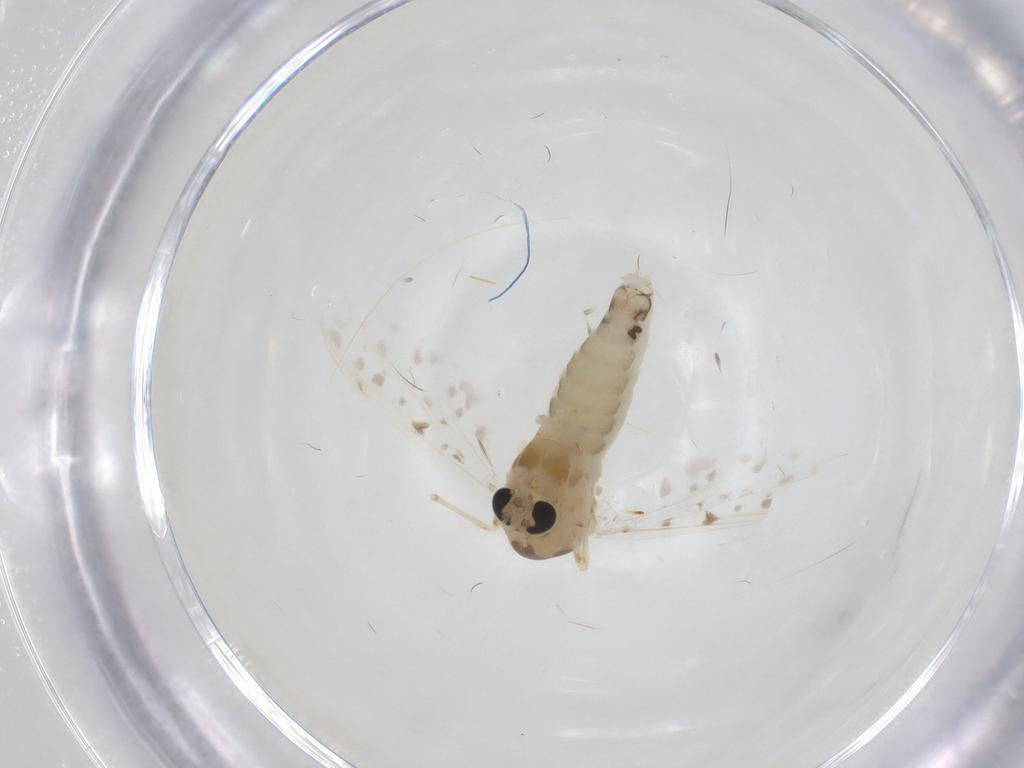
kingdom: Animalia
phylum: Arthropoda
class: Insecta
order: Diptera
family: Chironomidae
